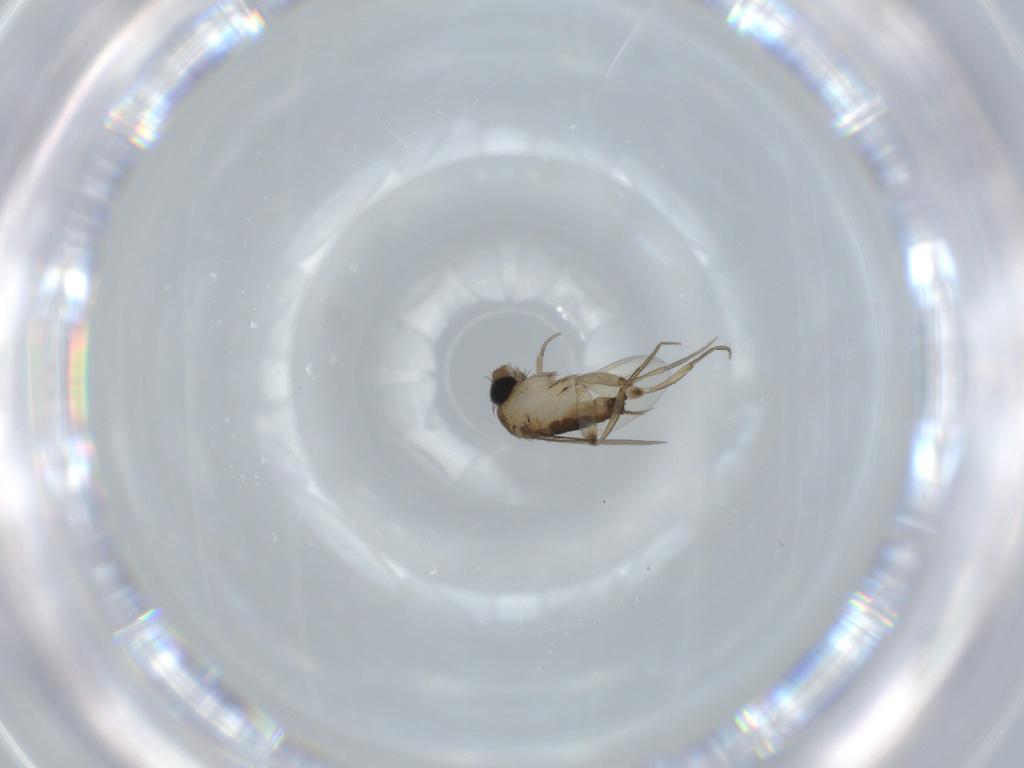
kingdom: Animalia
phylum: Arthropoda
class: Insecta
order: Diptera
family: Phoridae
